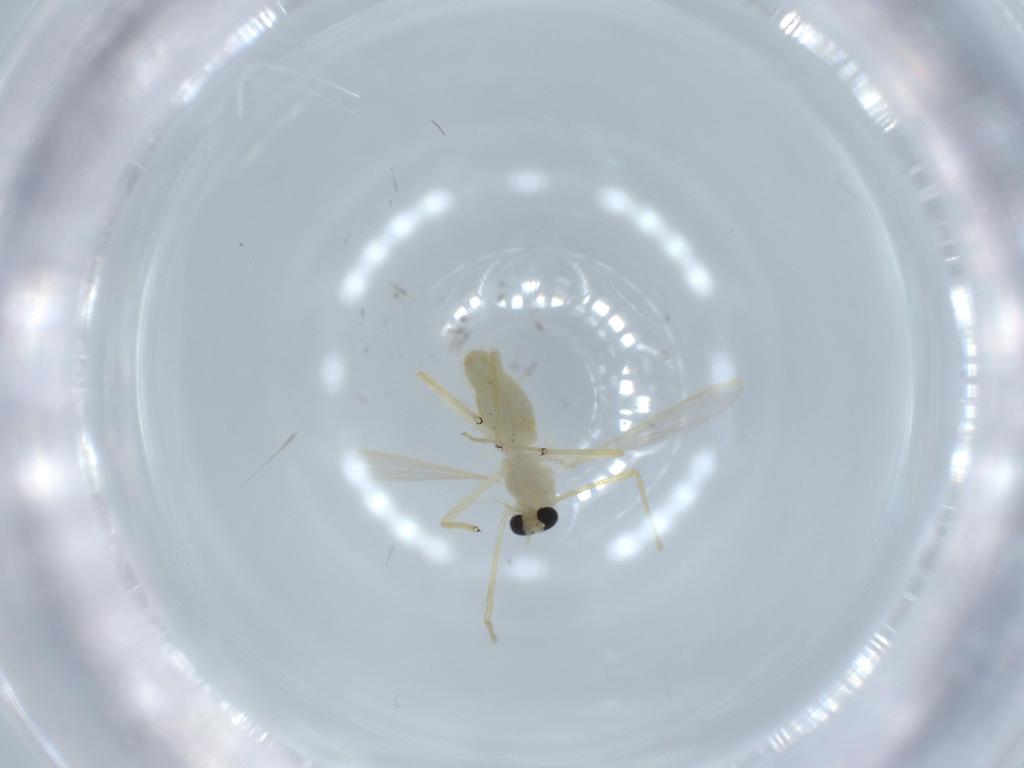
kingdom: Animalia
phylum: Arthropoda
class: Insecta
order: Diptera
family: Chironomidae
